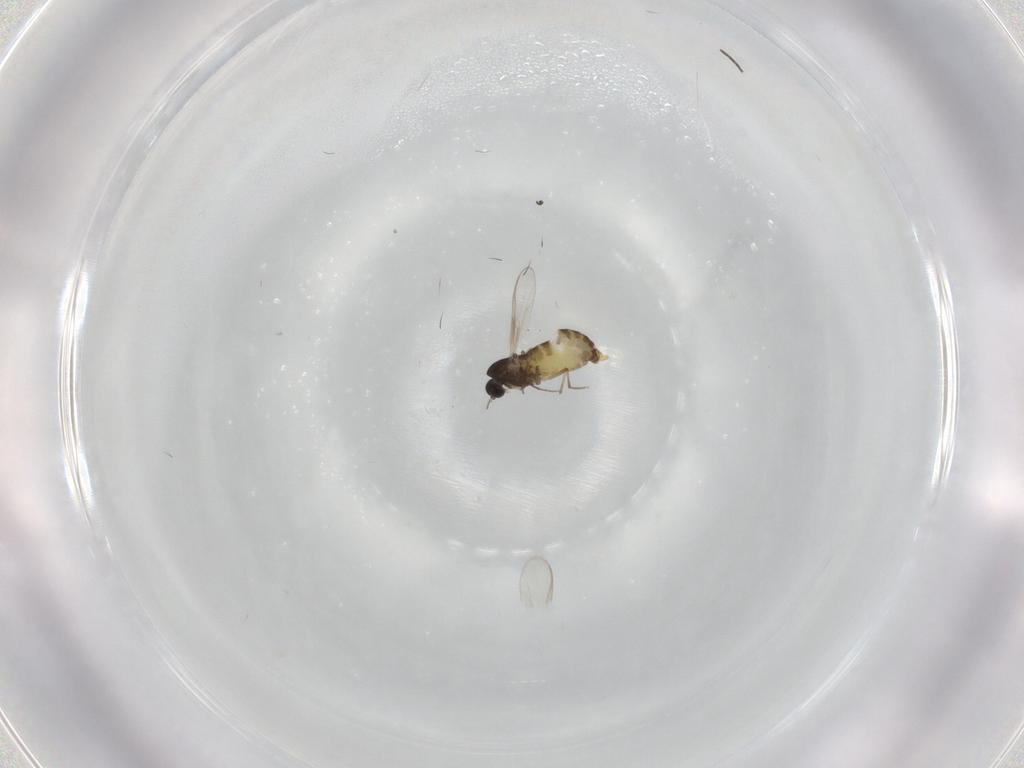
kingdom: Animalia
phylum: Arthropoda
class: Insecta
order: Diptera
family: Chironomidae
